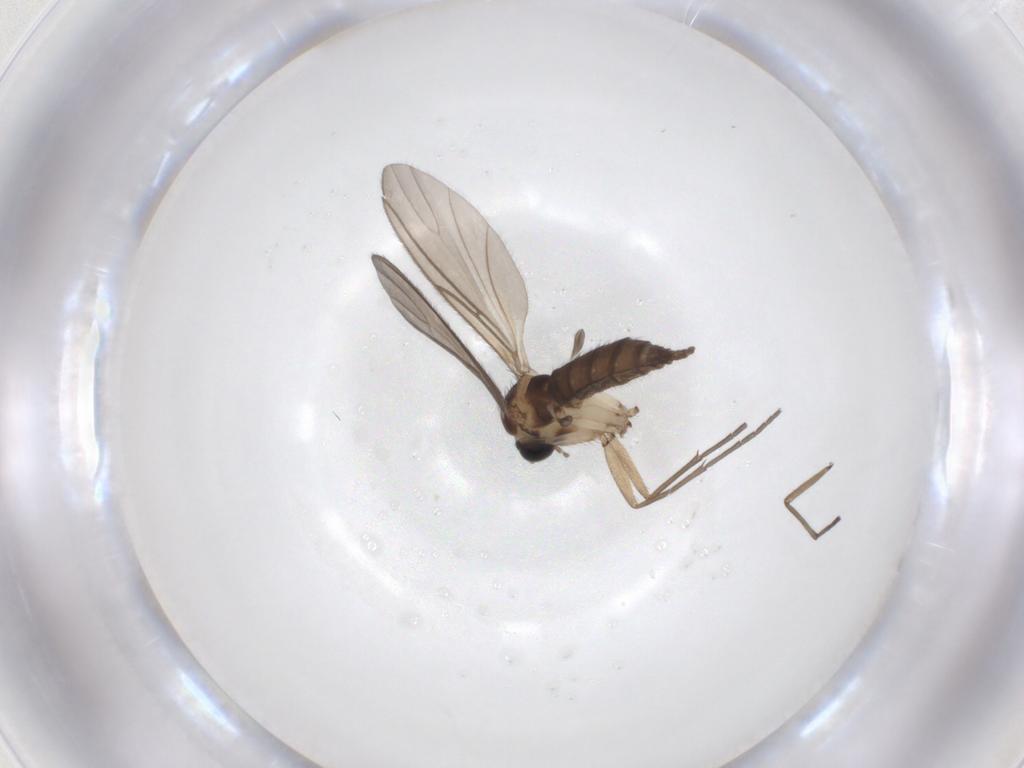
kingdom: Animalia
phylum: Arthropoda
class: Insecta
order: Diptera
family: Sciaridae
